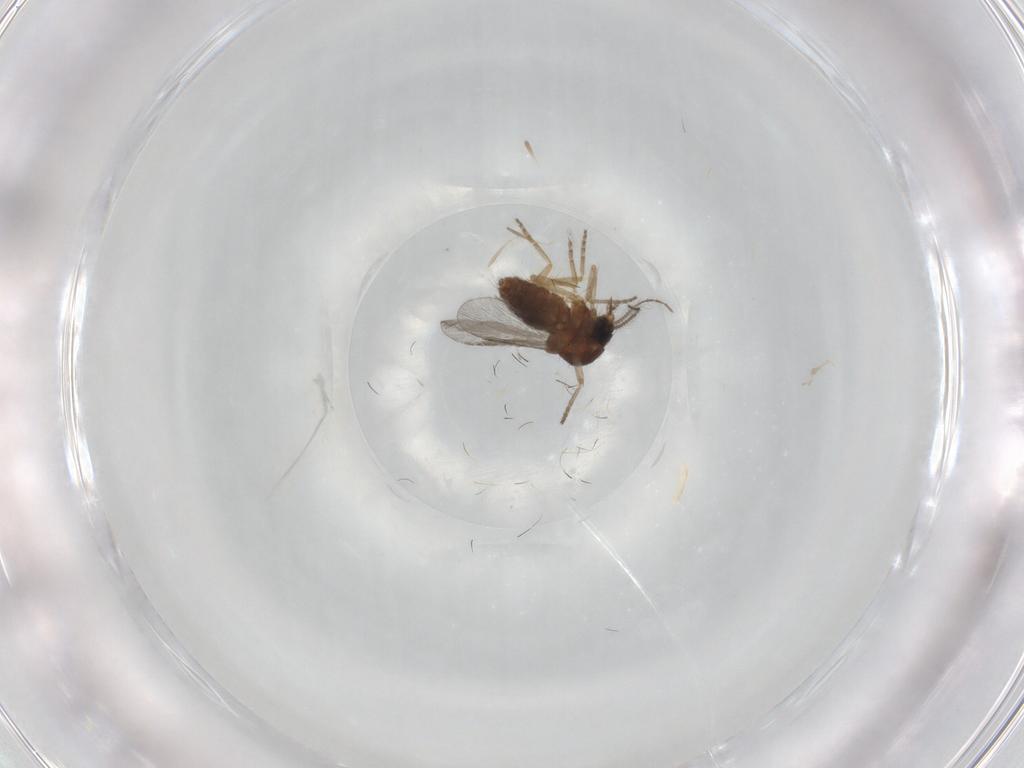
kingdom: Animalia
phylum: Arthropoda
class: Insecta
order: Diptera
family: Ceratopogonidae
